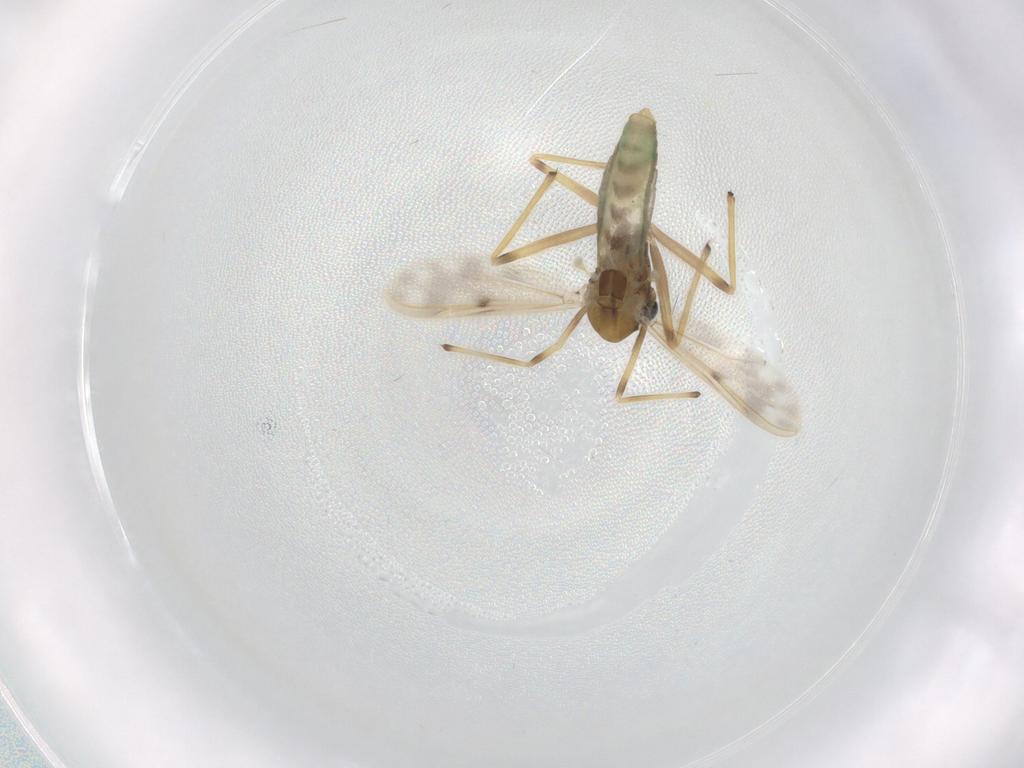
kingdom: Animalia
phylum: Arthropoda
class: Insecta
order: Diptera
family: Chironomidae
